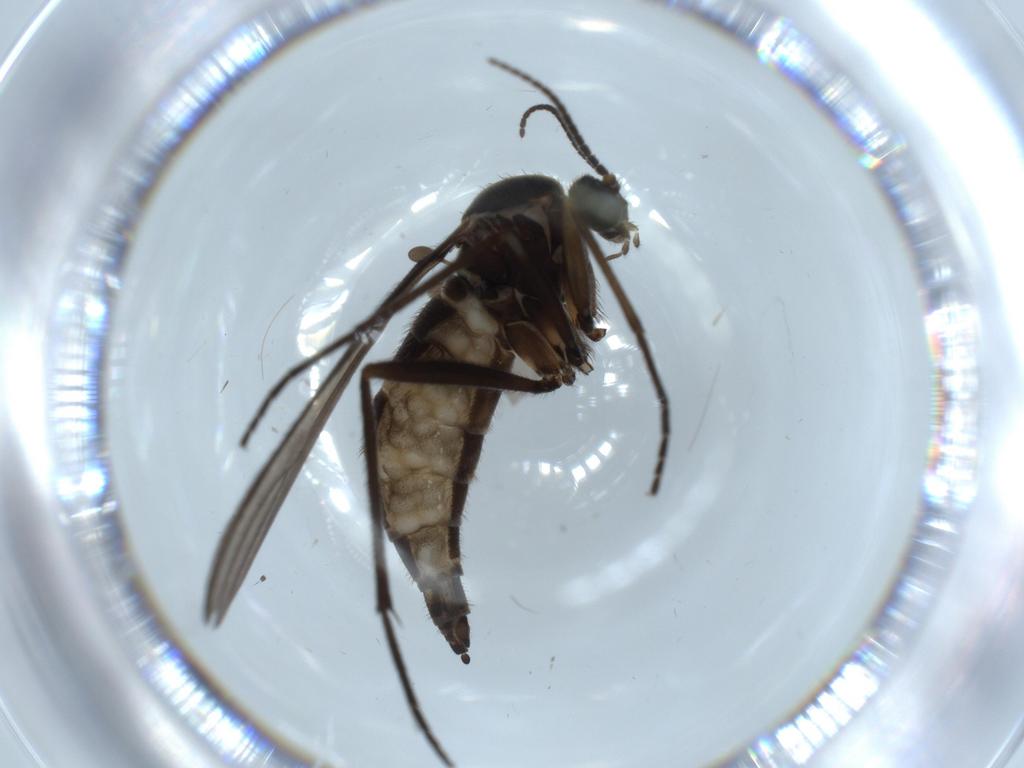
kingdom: Animalia
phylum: Arthropoda
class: Insecta
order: Diptera
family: Sciaridae
